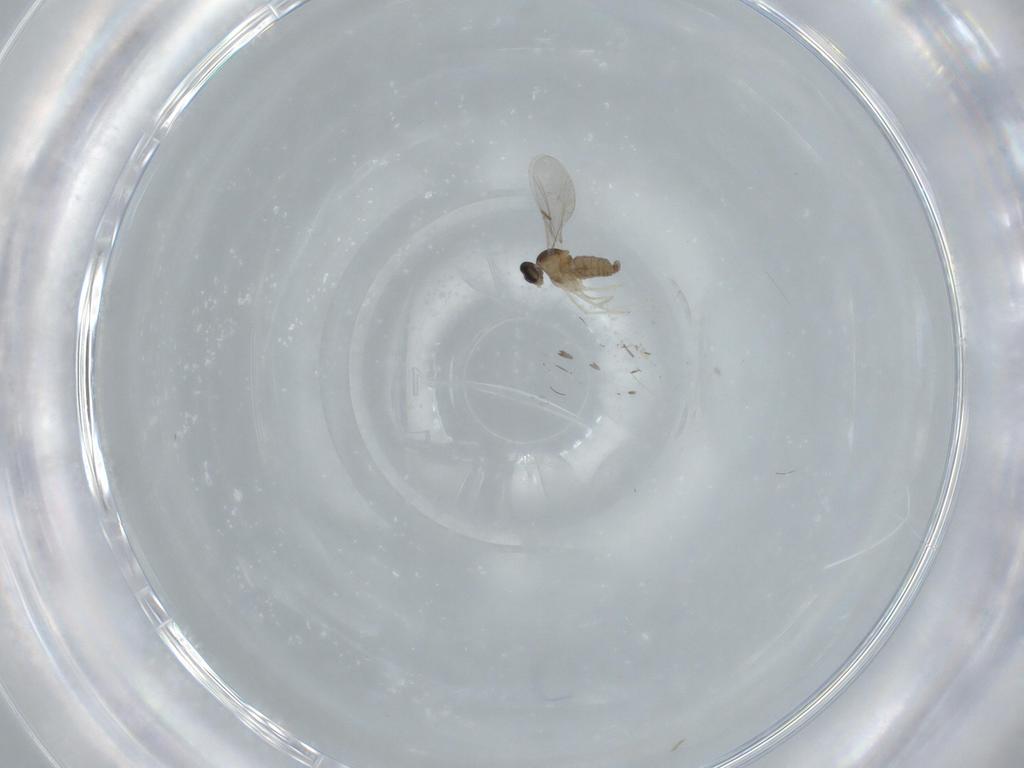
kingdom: Animalia
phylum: Arthropoda
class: Insecta
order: Diptera
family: Chironomidae
